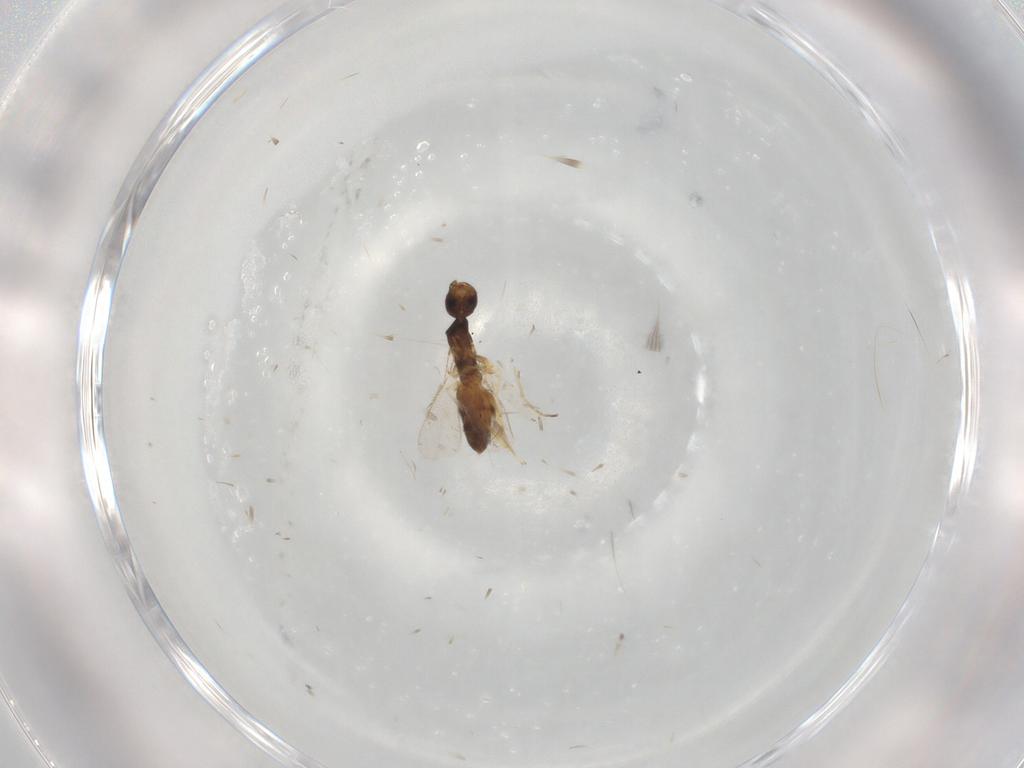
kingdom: Animalia
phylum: Arthropoda
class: Insecta
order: Hymenoptera
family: Eulophidae
